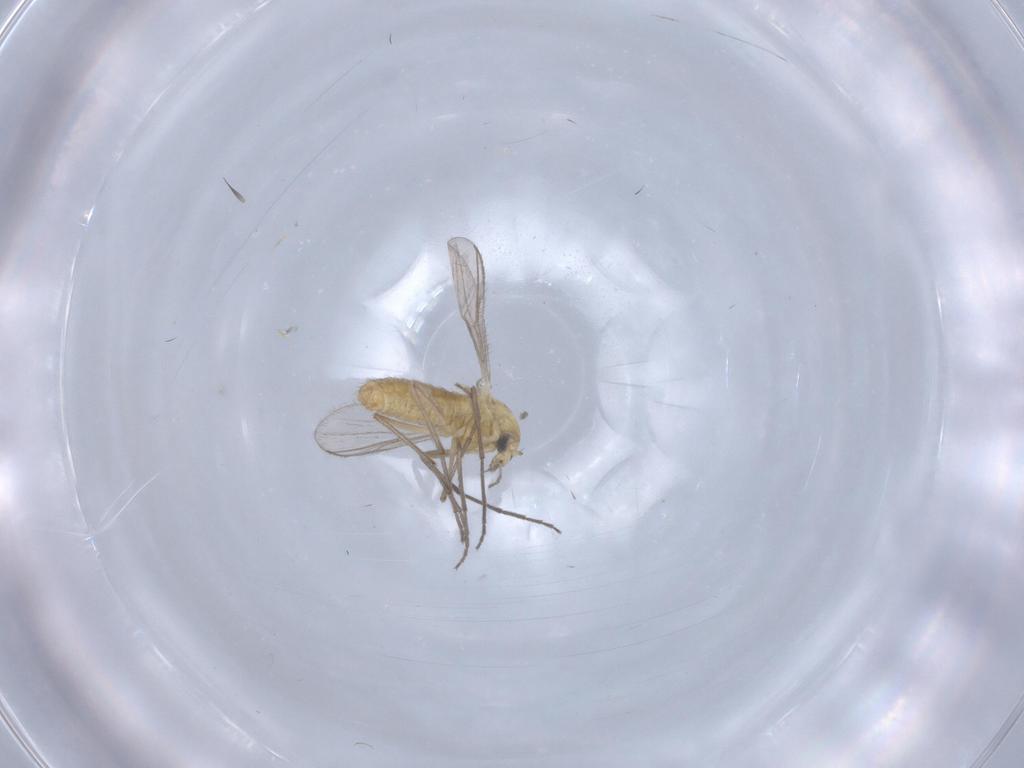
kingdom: Animalia
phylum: Arthropoda
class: Insecta
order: Diptera
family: Chironomidae
